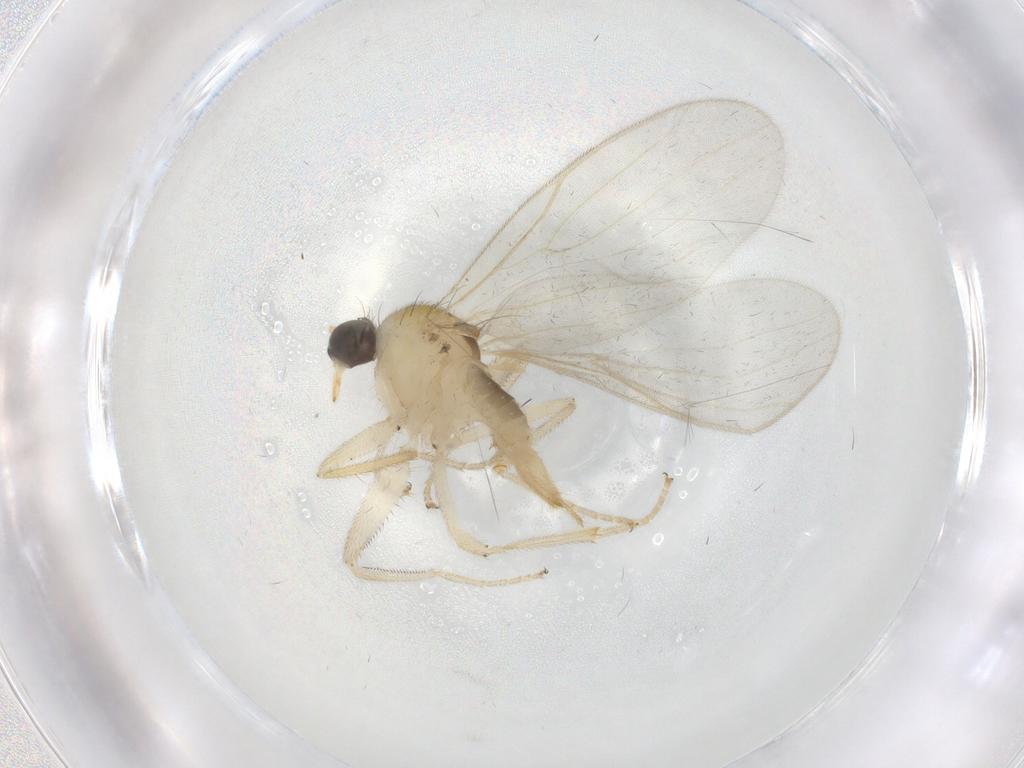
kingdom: Animalia
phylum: Arthropoda
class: Insecta
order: Diptera
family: Hybotidae
